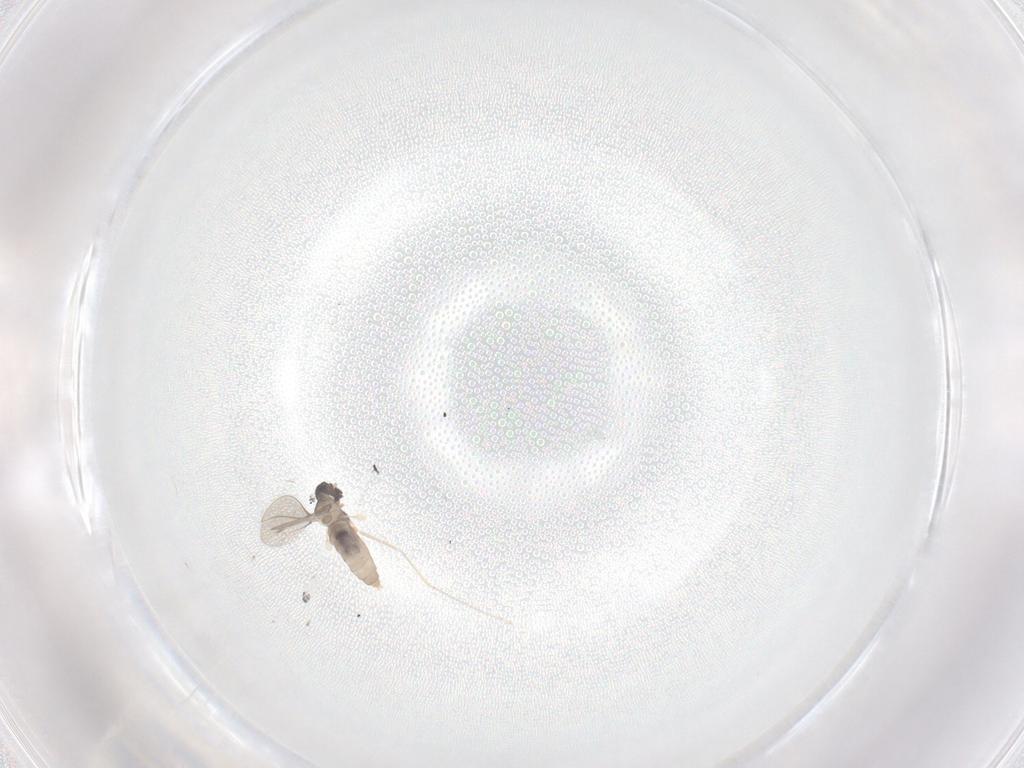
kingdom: Animalia
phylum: Arthropoda
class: Insecta
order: Diptera
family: Cecidomyiidae
